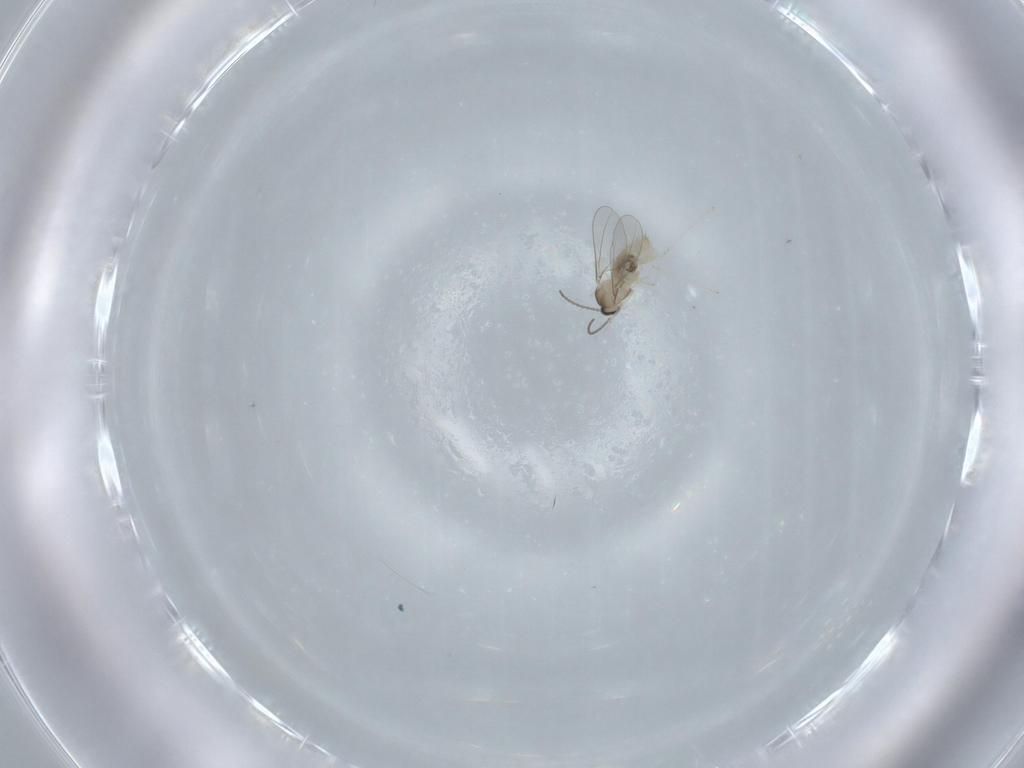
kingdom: Animalia
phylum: Arthropoda
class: Insecta
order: Diptera
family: Cecidomyiidae
